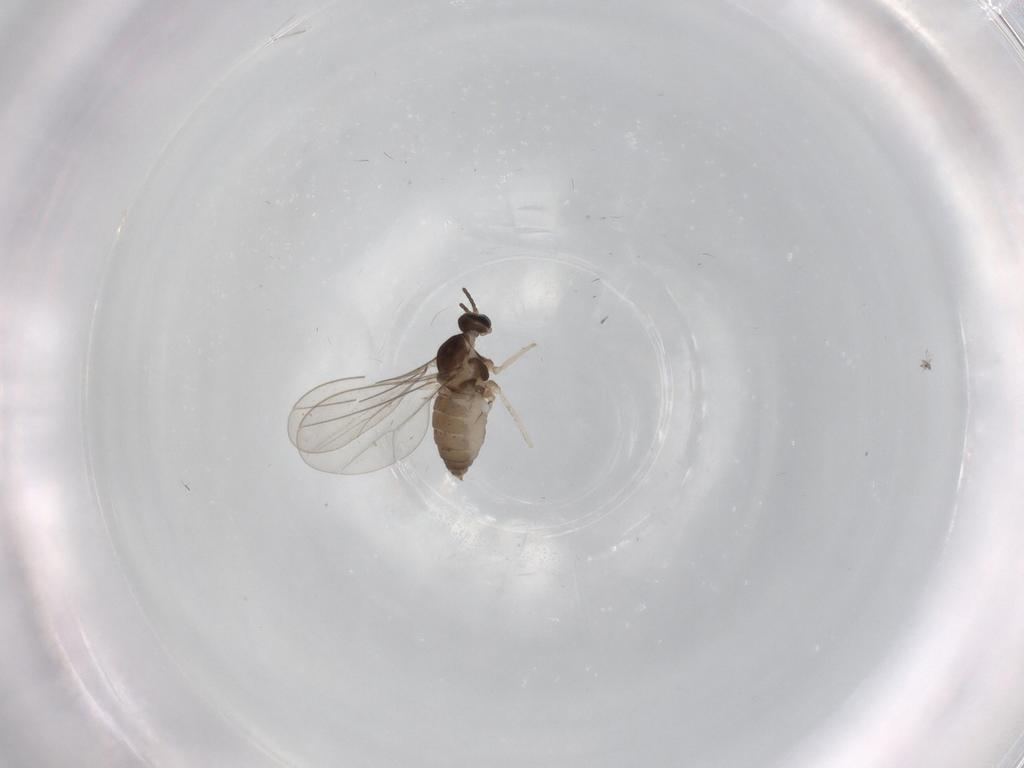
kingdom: Animalia
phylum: Arthropoda
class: Insecta
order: Diptera
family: Cecidomyiidae
